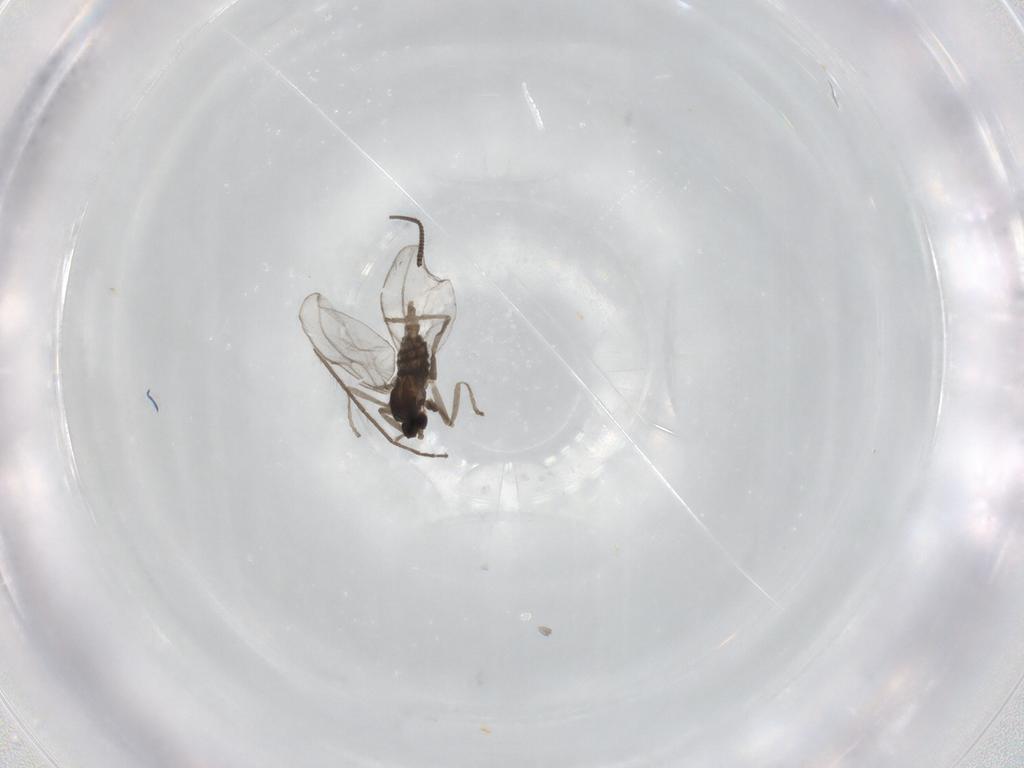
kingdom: Animalia
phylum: Arthropoda
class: Insecta
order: Diptera
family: Cecidomyiidae
